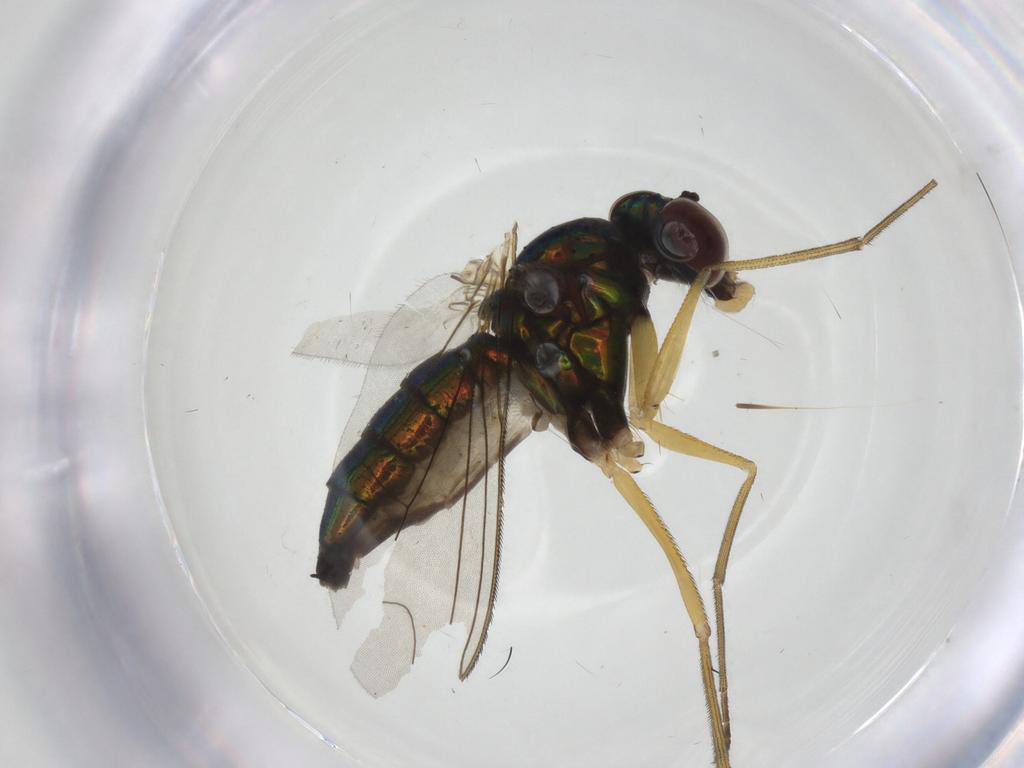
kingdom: Animalia
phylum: Arthropoda
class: Insecta
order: Diptera
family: Dolichopodidae
